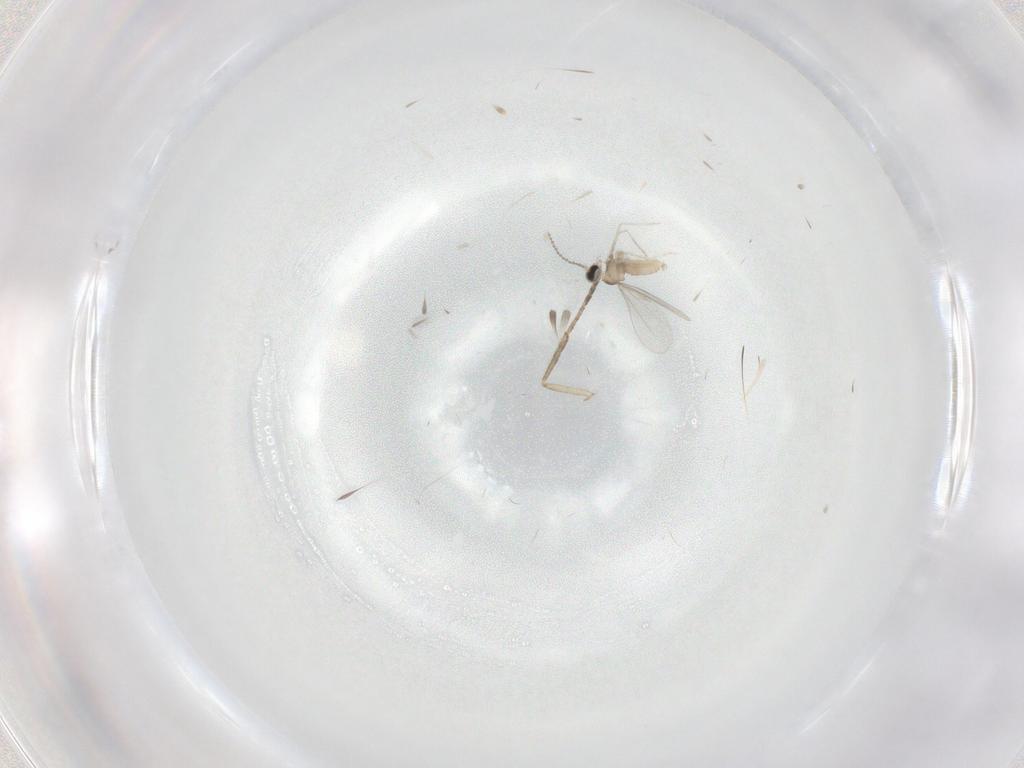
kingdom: Animalia
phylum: Arthropoda
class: Insecta
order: Diptera
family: Cecidomyiidae
